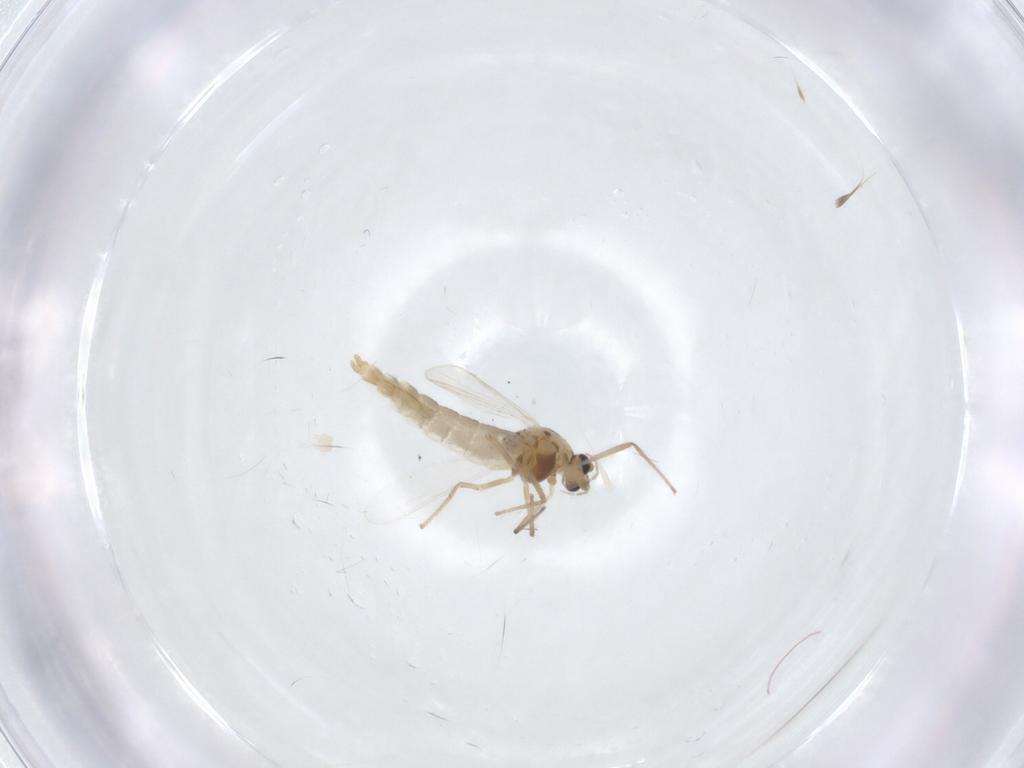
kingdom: Animalia
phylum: Arthropoda
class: Insecta
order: Diptera
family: Chironomidae
